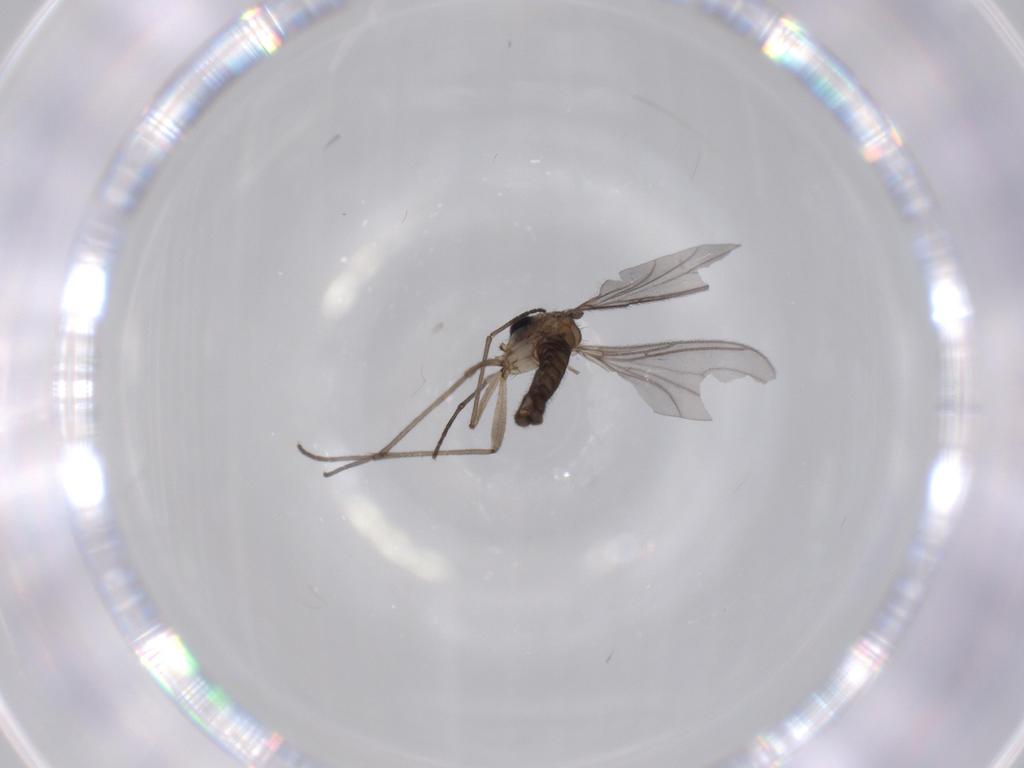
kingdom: Animalia
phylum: Arthropoda
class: Insecta
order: Diptera
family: Sciaridae
